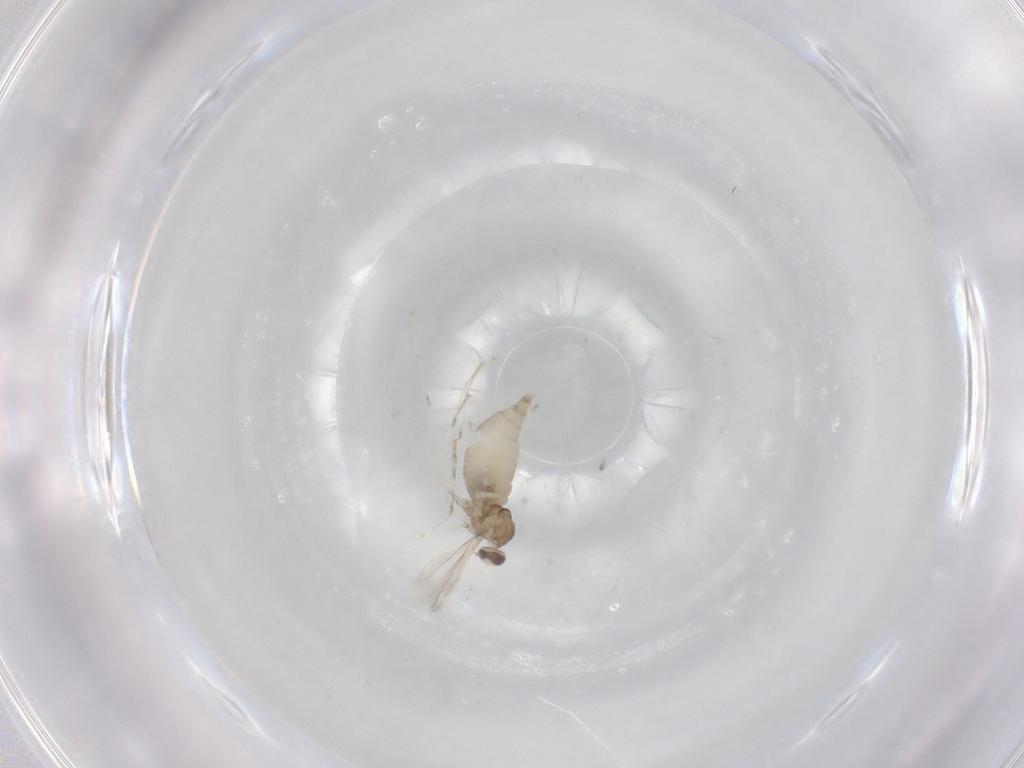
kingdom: Animalia
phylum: Arthropoda
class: Insecta
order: Diptera
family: Cecidomyiidae
